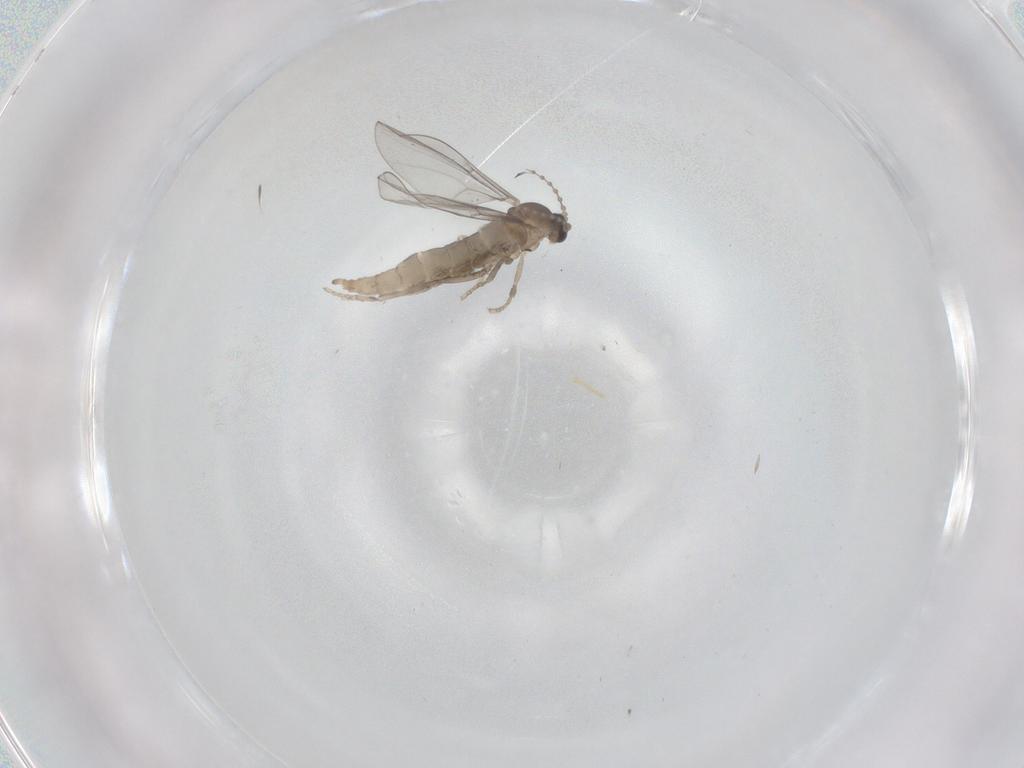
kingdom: Animalia
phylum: Arthropoda
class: Insecta
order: Diptera
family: Cecidomyiidae
